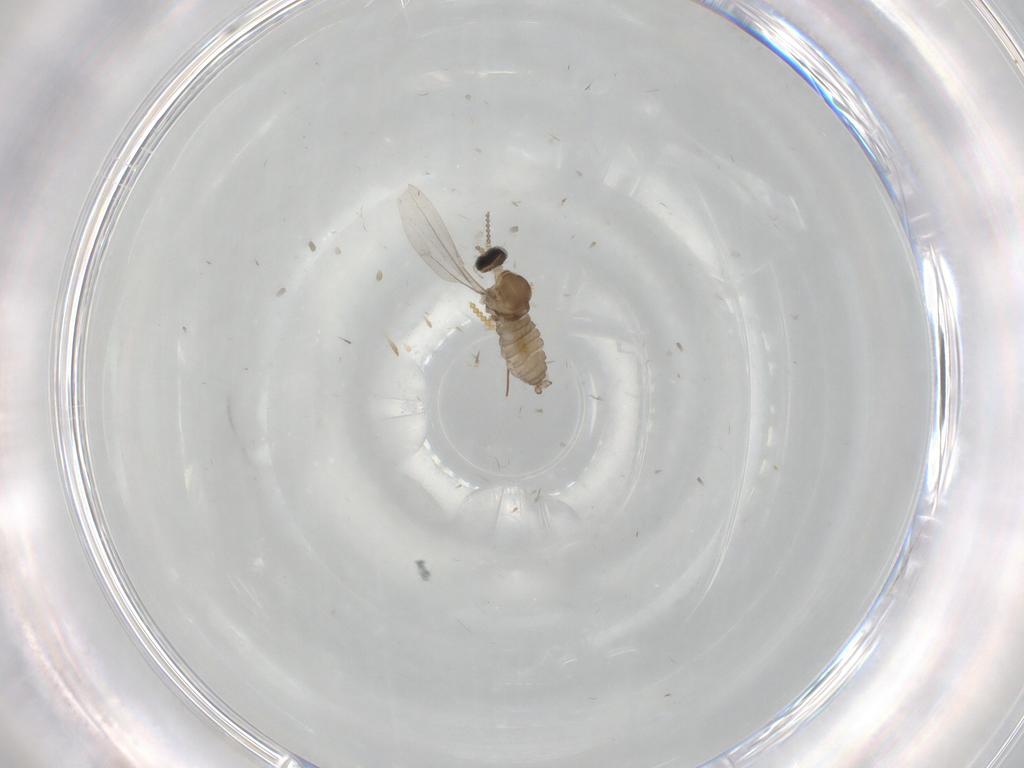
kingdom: Animalia
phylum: Arthropoda
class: Insecta
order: Diptera
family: Cecidomyiidae
